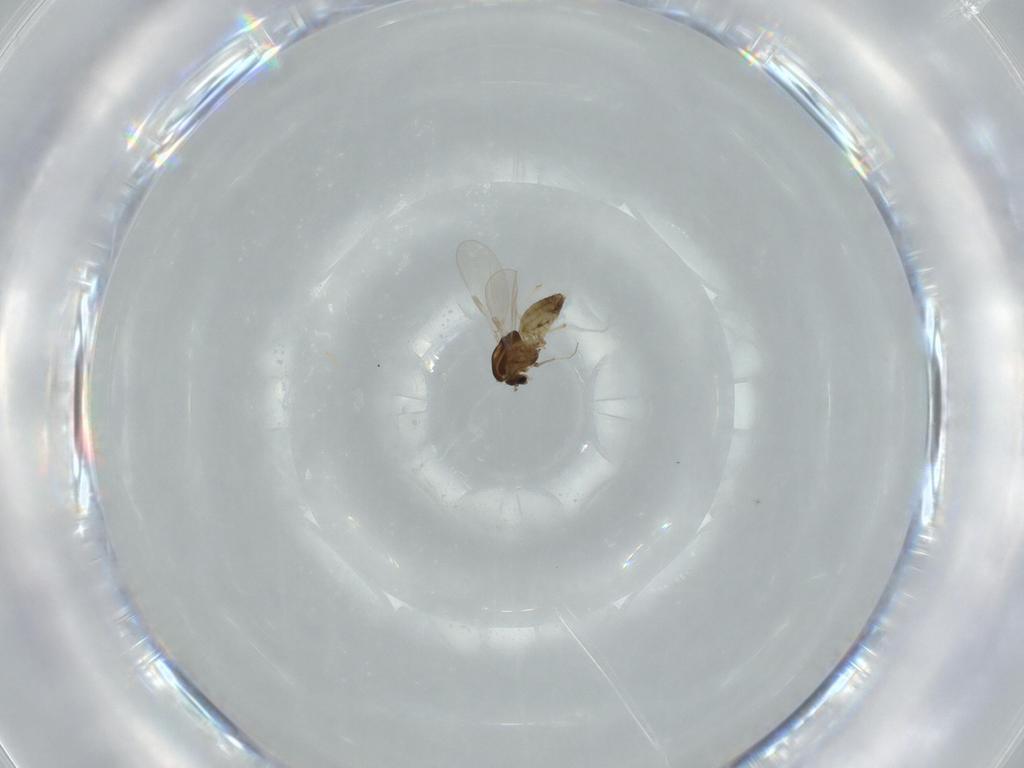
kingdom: Animalia
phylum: Arthropoda
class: Insecta
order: Diptera
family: Chironomidae
